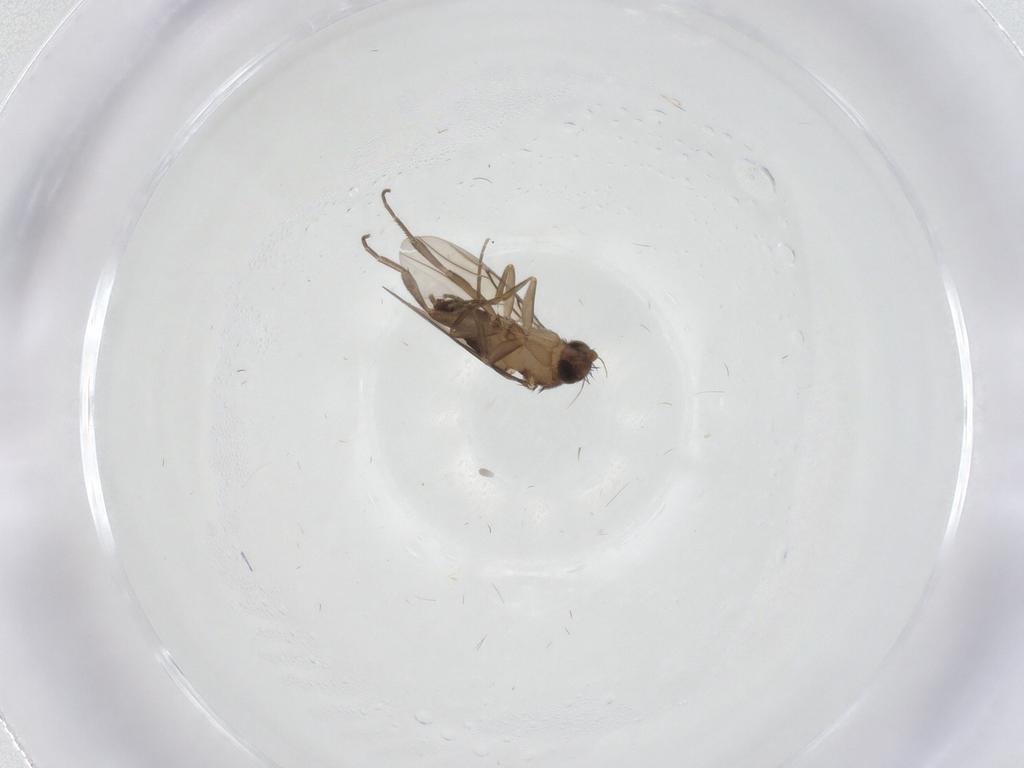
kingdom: Animalia
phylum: Arthropoda
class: Insecta
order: Diptera
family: Phoridae
